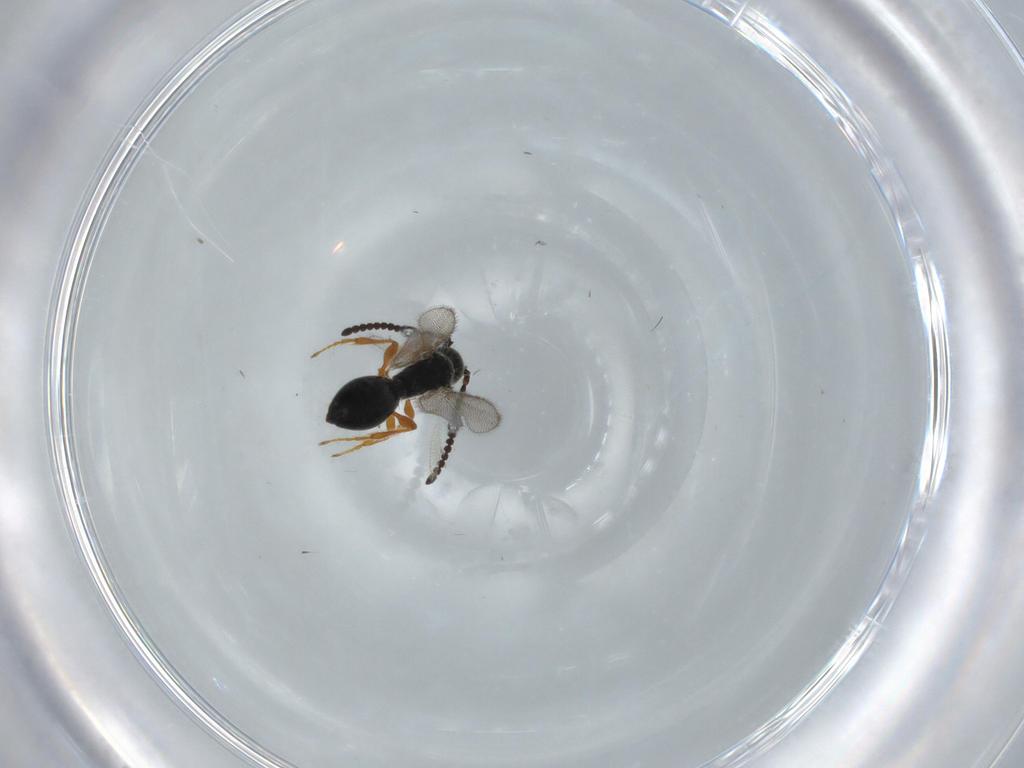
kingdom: Animalia
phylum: Arthropoda
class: Insecta
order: Hymenoptera
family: Diapriidae
